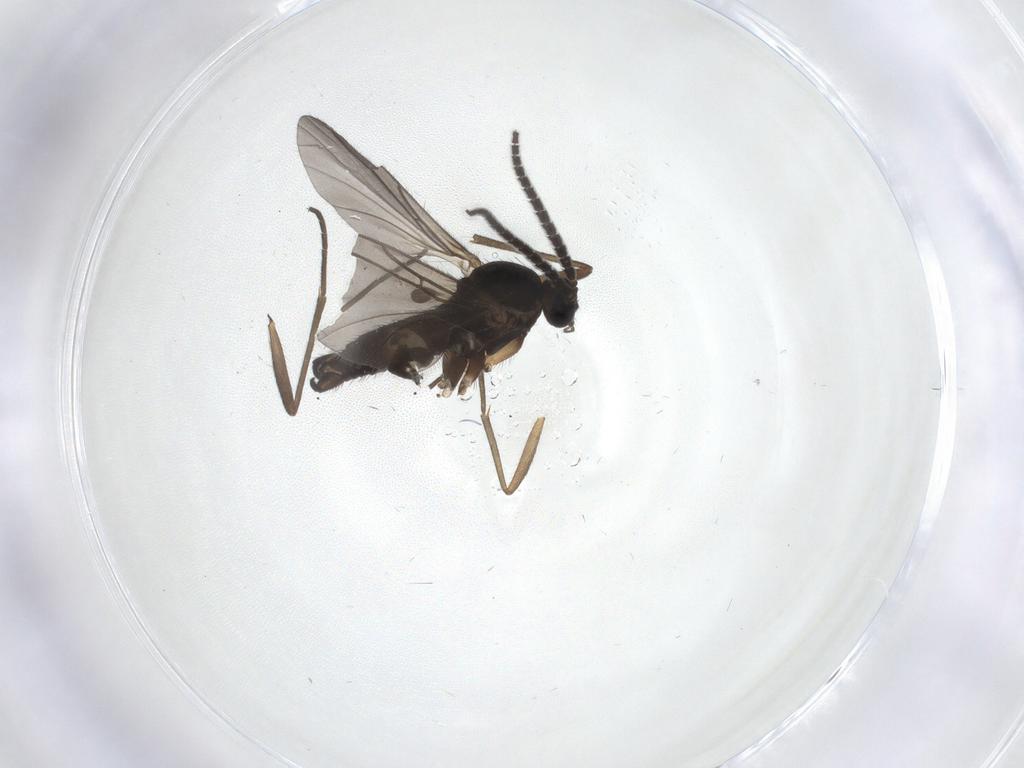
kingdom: Animalia
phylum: Arthropoda
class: Insecta
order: Diptera
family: Sciaridae
